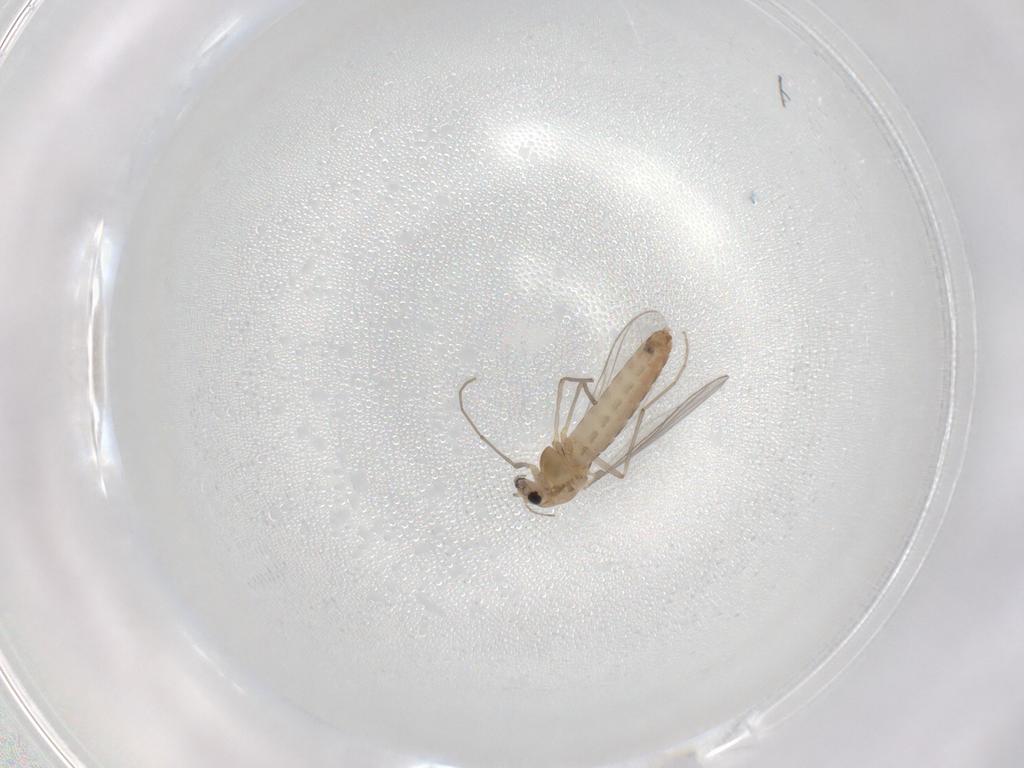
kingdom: Animalia
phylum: Arthropoda
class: Insecta
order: Diptera
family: Chironomidae
